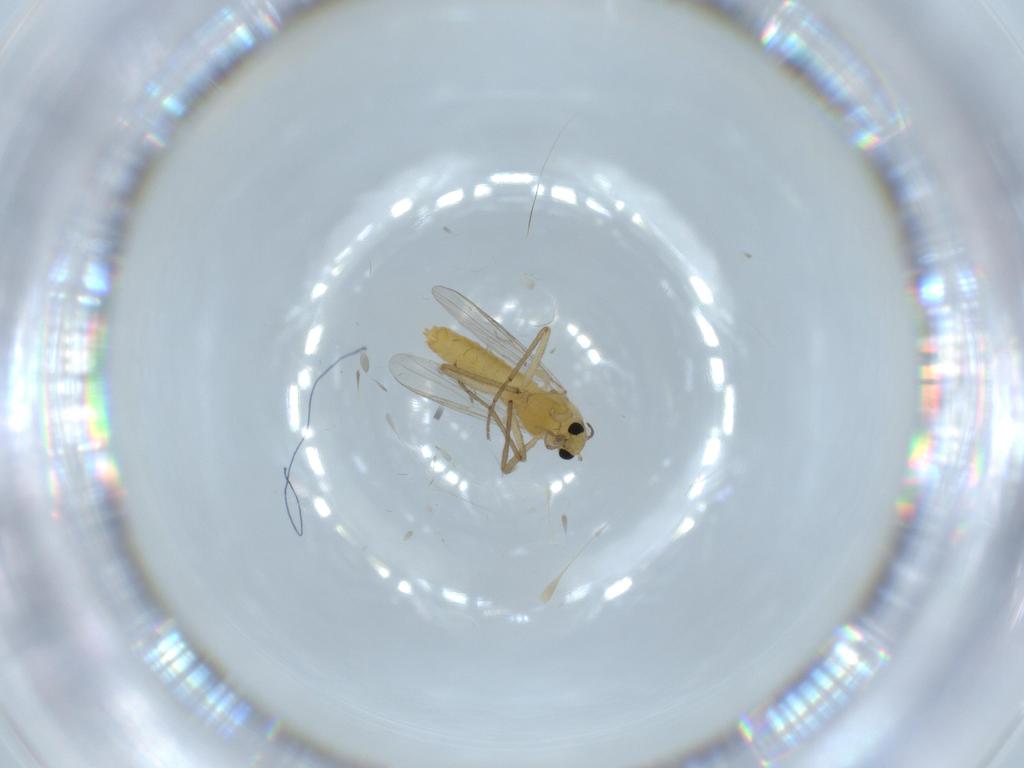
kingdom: Animalia
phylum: Arthropoda
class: Insecta
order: Diptera
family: Chironomidae
